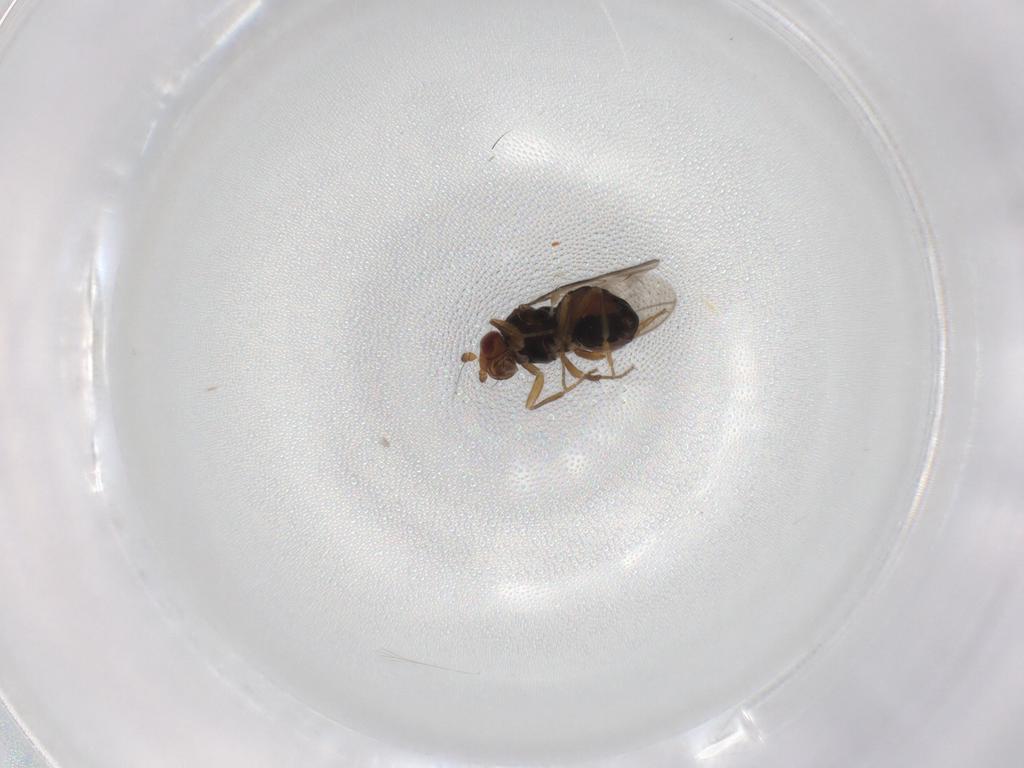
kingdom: Animalia
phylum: Arthropoda
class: Insecta
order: Diptera
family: Sphaeroceridae
